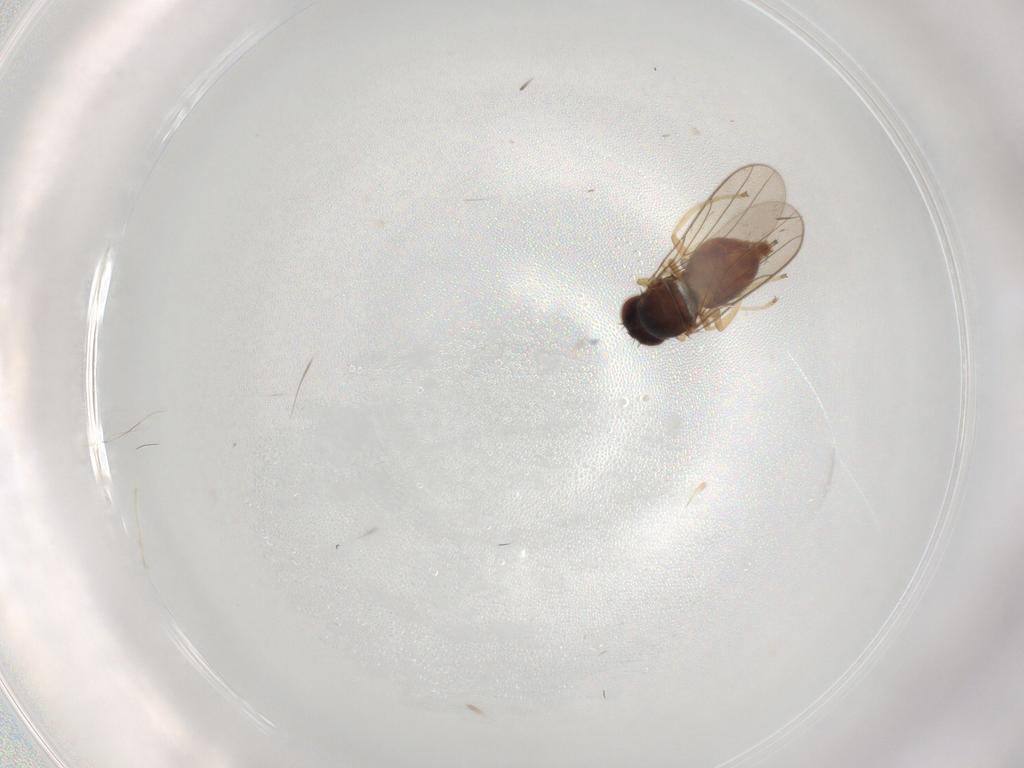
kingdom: Animalia
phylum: Arthropoda
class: Insecta
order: Diptera
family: Chloropidae
